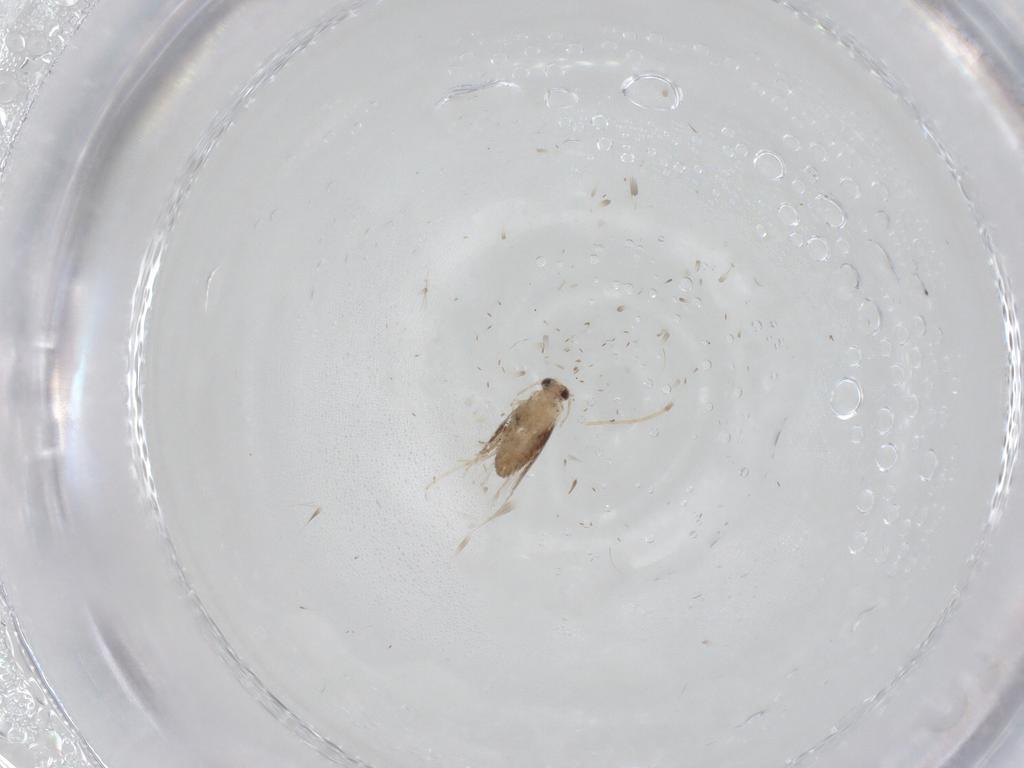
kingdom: Animalia
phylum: Arthropoda
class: Insecta
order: Lepidoptera
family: Nepticulidae
